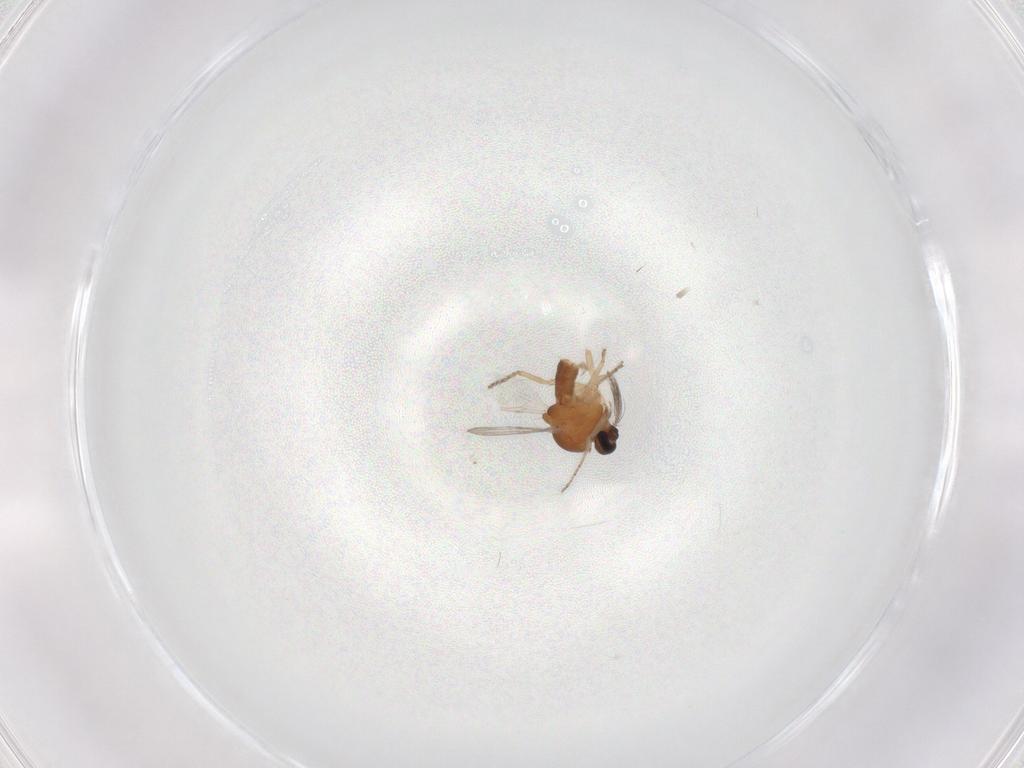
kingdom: Animalia
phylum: Arthropoda
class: Insecta
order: Diptera
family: Ceratopogonidae
